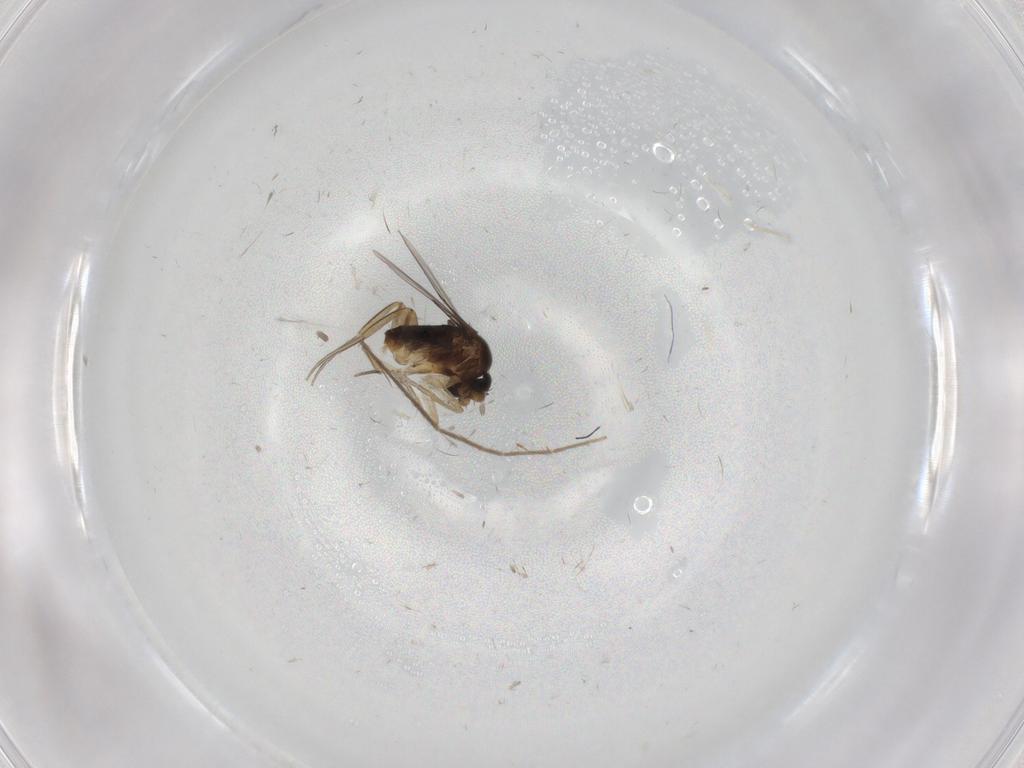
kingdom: Animalia
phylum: Arthropoda
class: Insecta
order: Diptera
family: Phoridae
